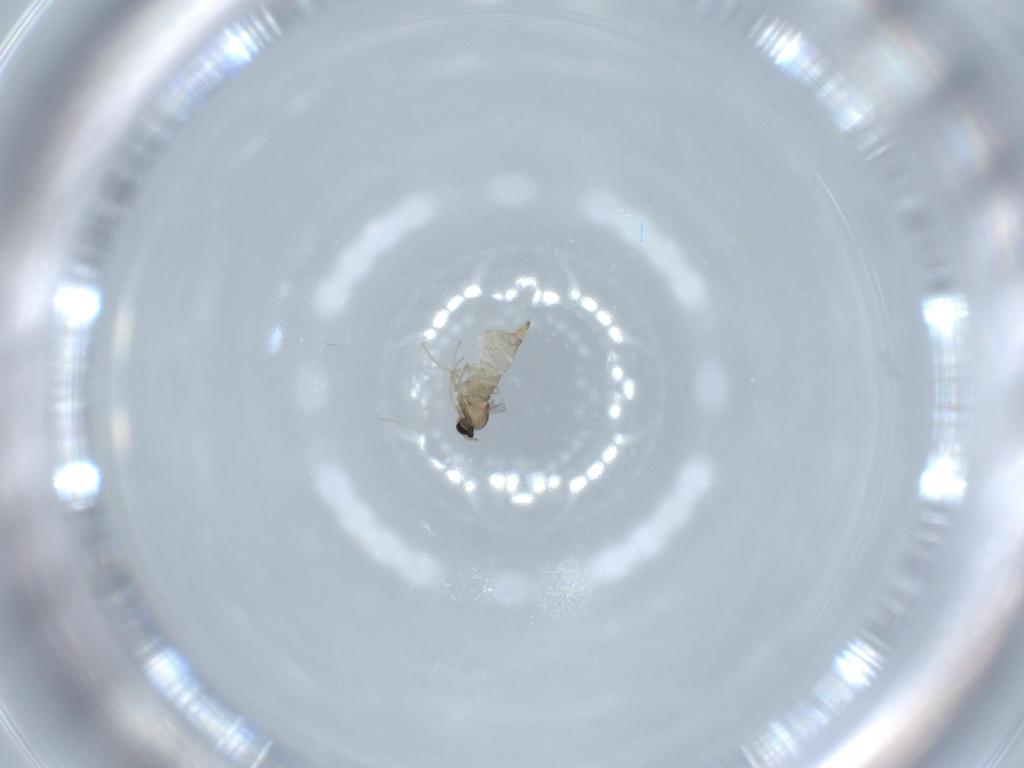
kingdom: Animalia
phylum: Arthropoda
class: Insecta
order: Diptera
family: Cecidomyiidae
